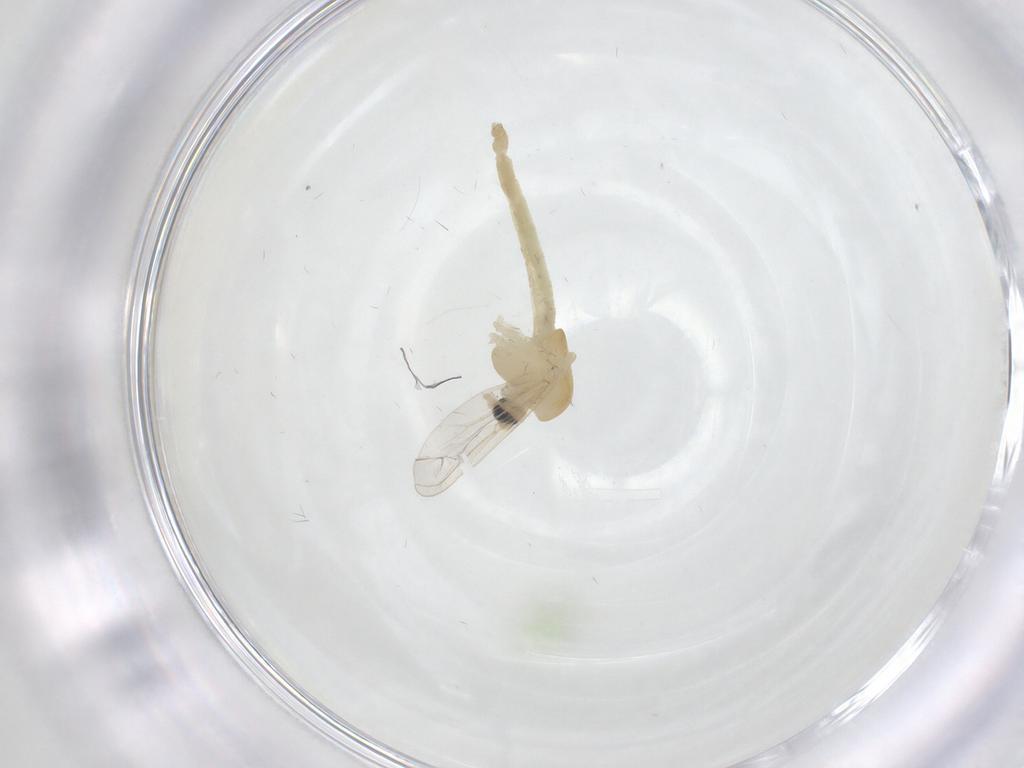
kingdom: Animalia
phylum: Arthropoda
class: Insecta
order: Diptera
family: Chironomidae
